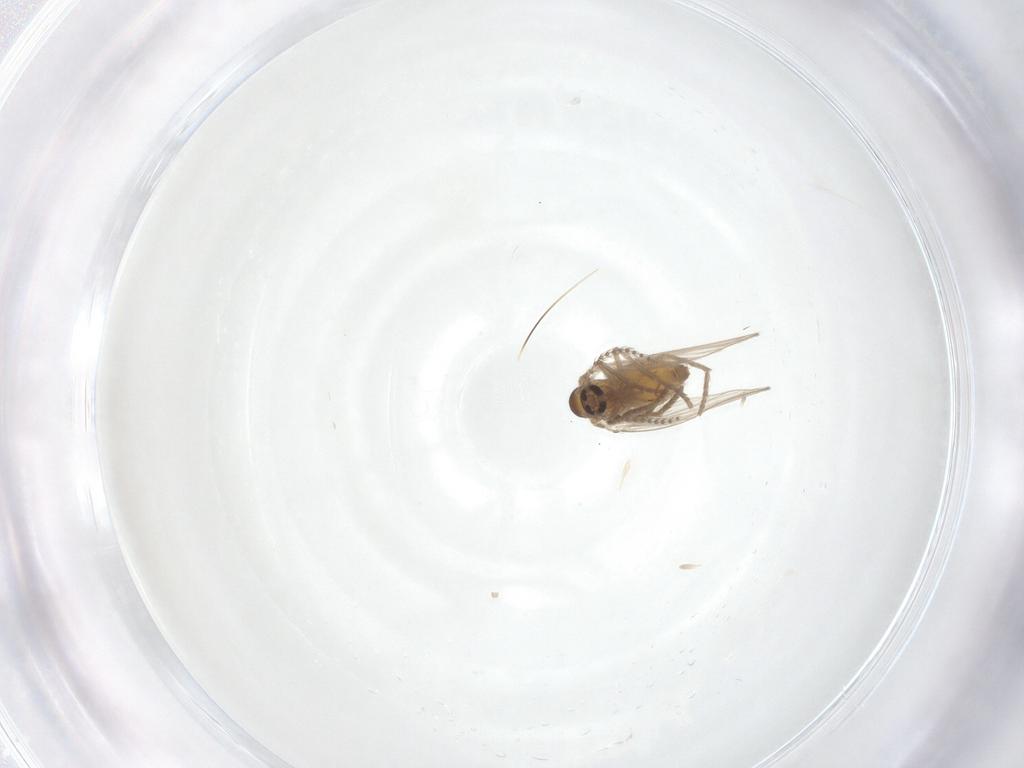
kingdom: Animalia
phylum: Arthropoda
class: Insecta
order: Diptera
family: Psychodidae
